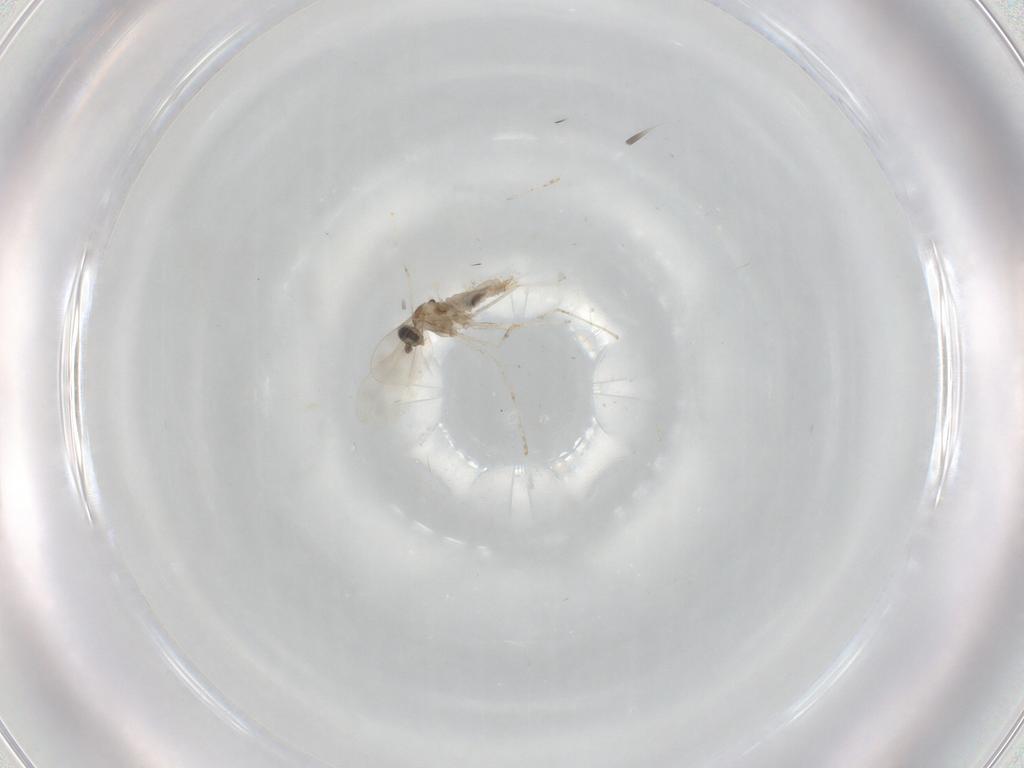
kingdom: Animalia
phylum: Arthropoda
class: Insecta
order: Diptera
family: Cecidomyiidae
